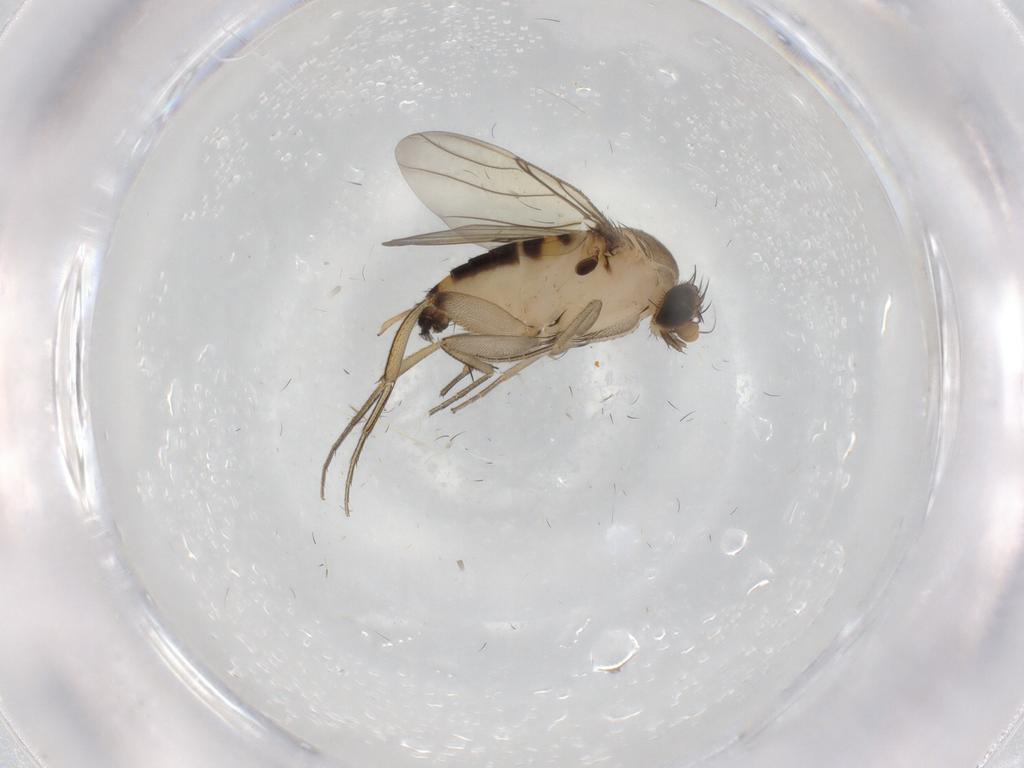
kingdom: Animalia
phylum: Arthropoda
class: Insecta
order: Diptera
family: Phoridae
